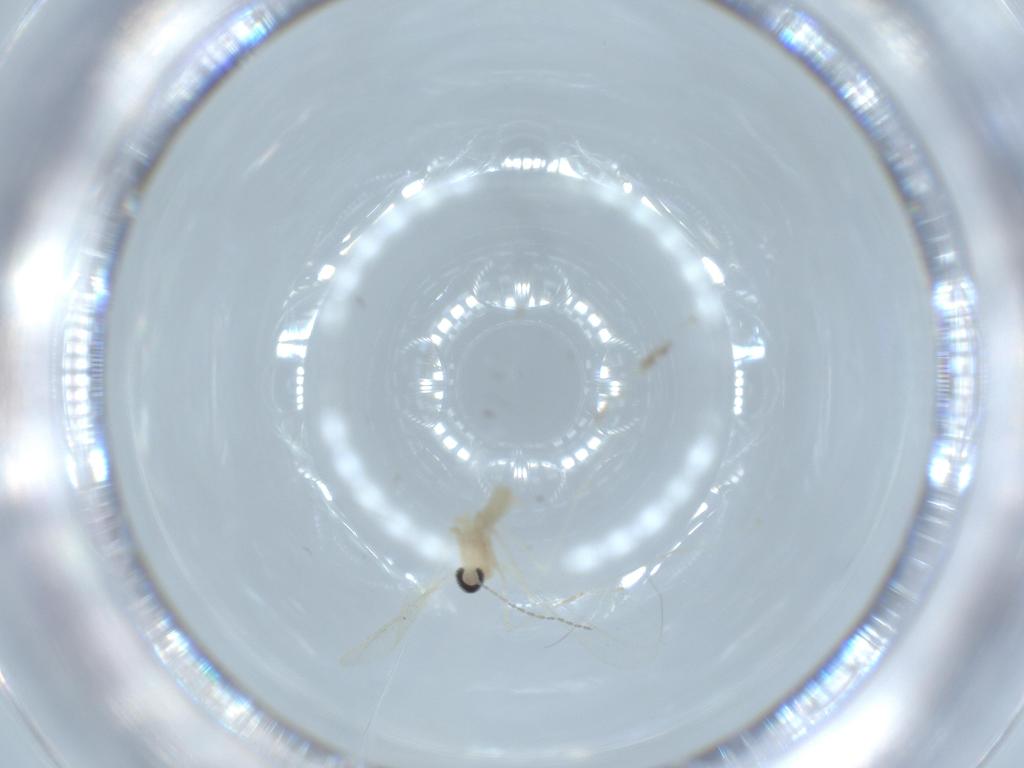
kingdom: Animalia
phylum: Arthropoda
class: Insecta
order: Diptera
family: Cecidomyiidae
